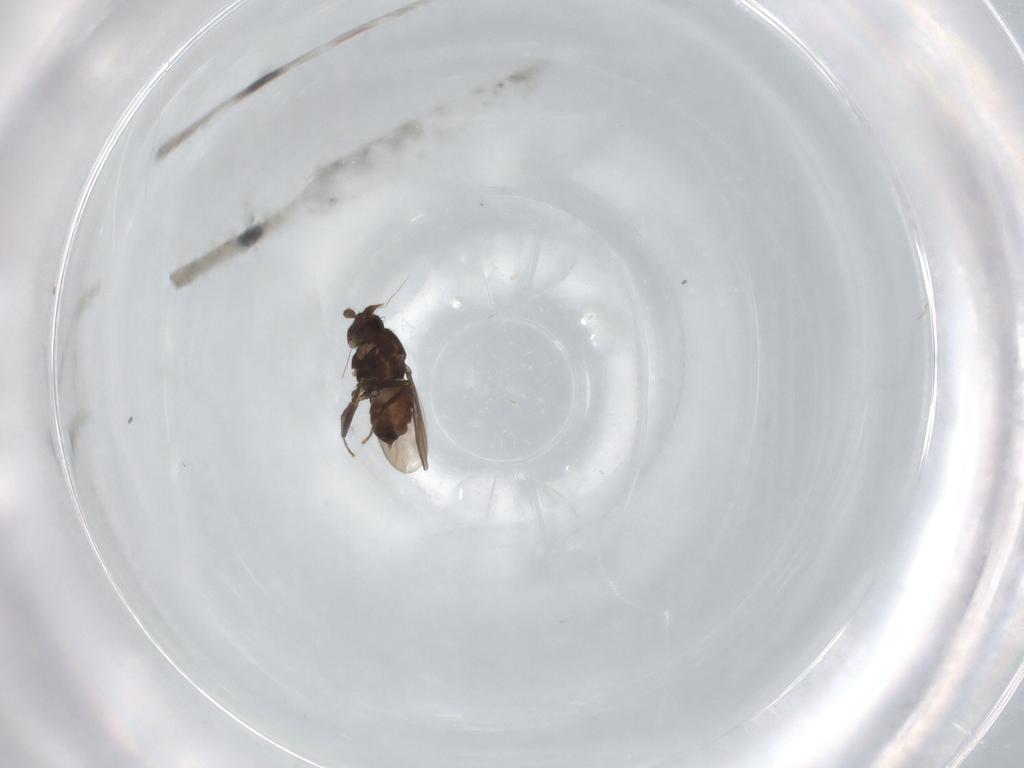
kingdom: Animalia
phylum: Arthropoda
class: Insecta
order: Diptera
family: Sphaeroceridae
